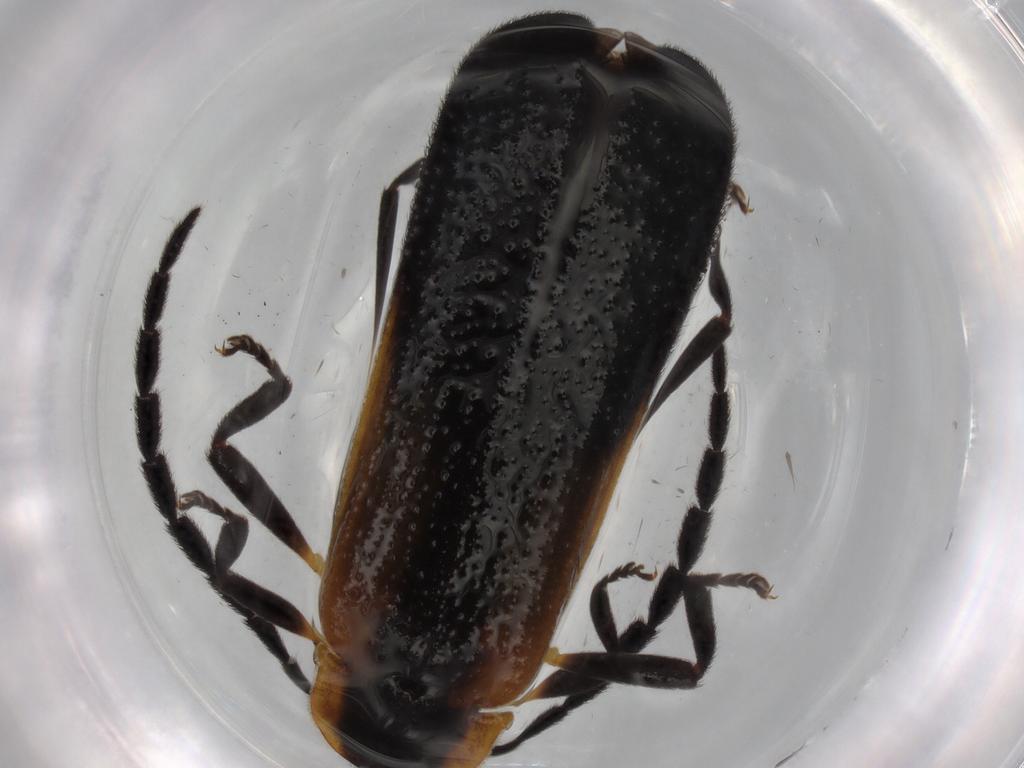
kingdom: Animalia
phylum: Arthropoda
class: Insecta
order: Coleoptera
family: Lycidae
